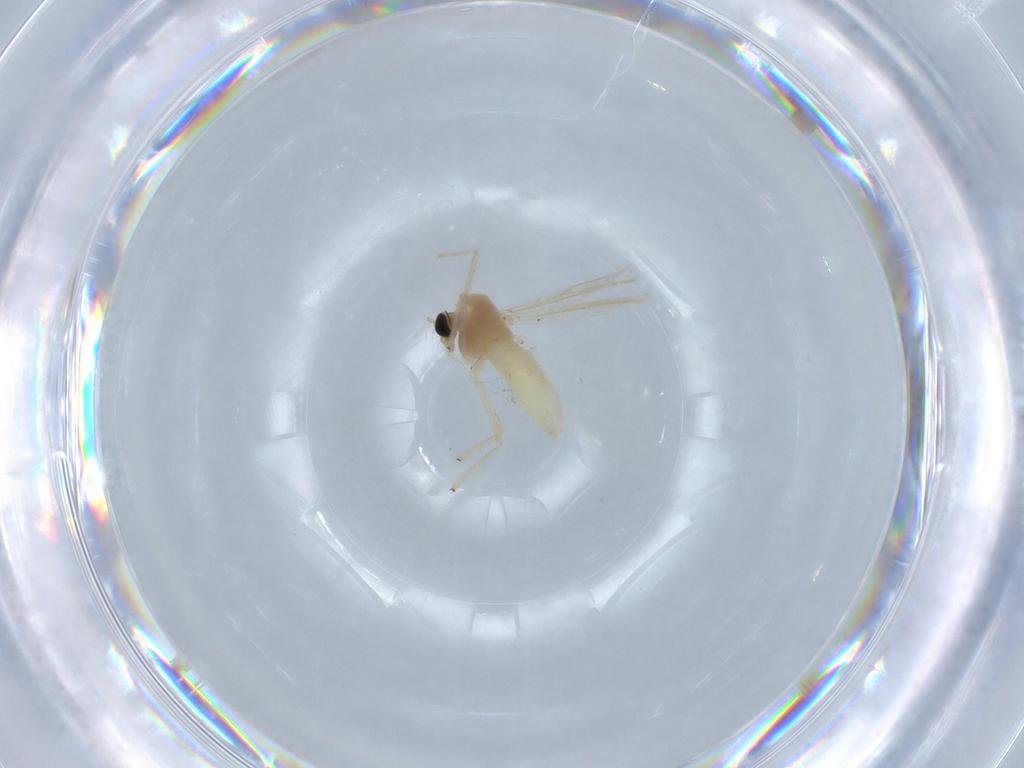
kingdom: Animalia
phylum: Arthropoda
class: Insecta
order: Diptera
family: Chironomidae
